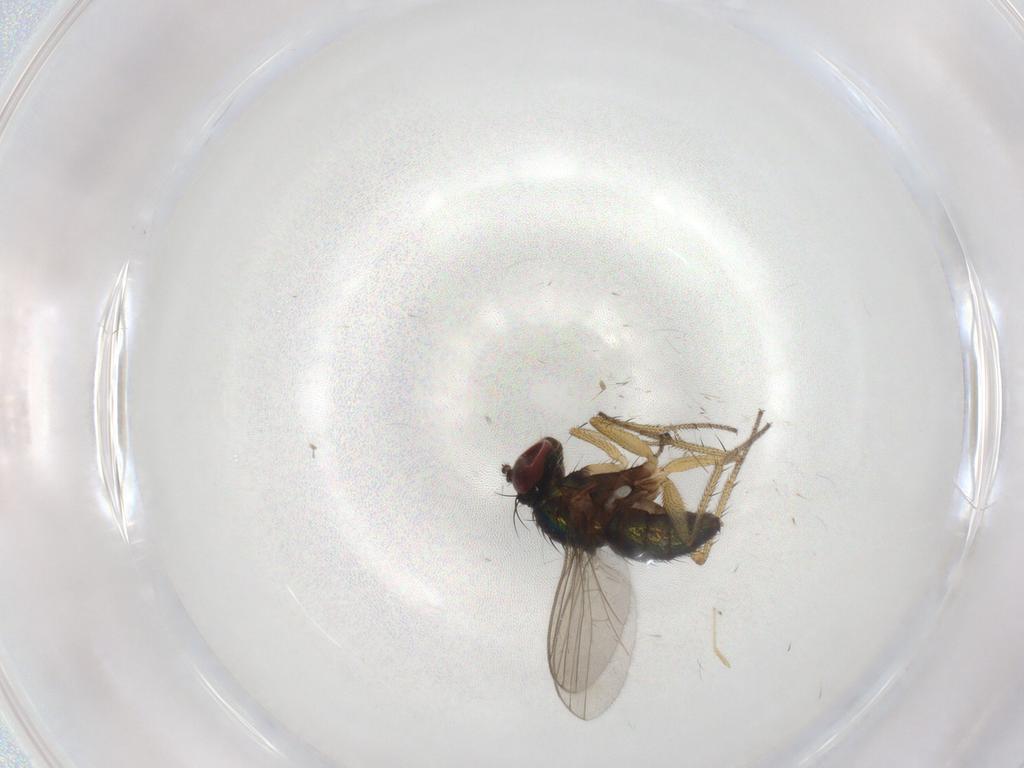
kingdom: Animalia
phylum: Arthropoda
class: Insecta
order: Diptera
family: Chironomidae
